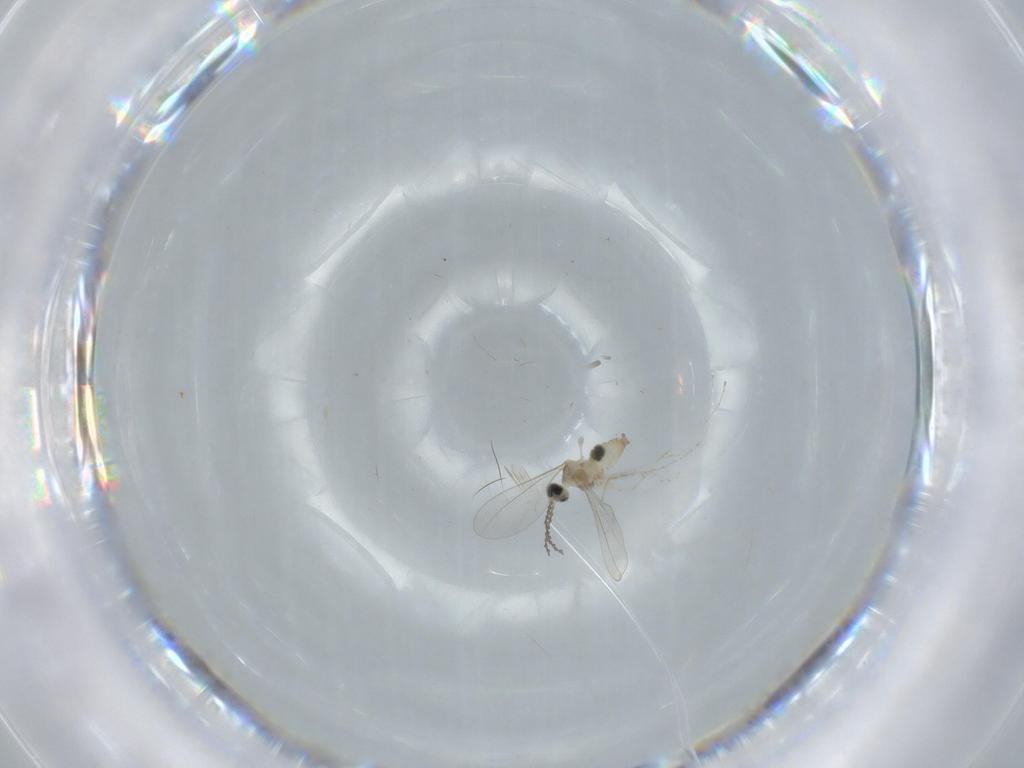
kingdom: Animalia
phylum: Arthropoda
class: Insecta
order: Diptera
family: Cecidomyiidae
